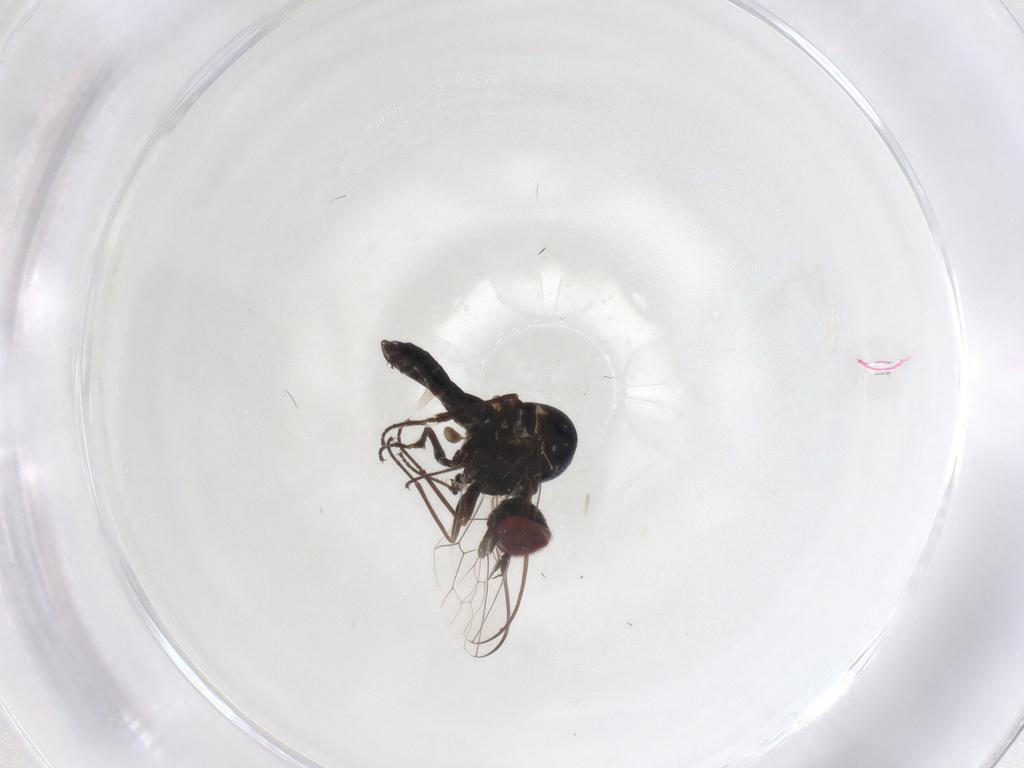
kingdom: Animalia
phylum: Arthropoda
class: Insecta
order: Diptera
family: Bombyliidae
